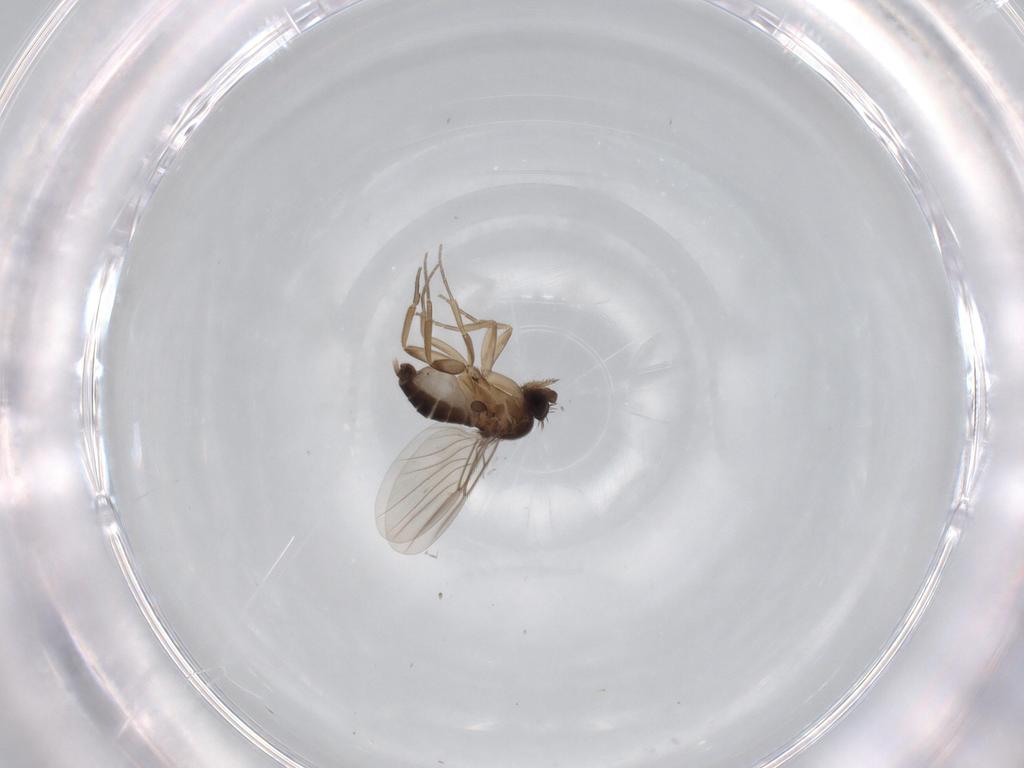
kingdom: Animalia
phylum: Arthropoda
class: Insecta
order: Diptera
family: Phoridae
